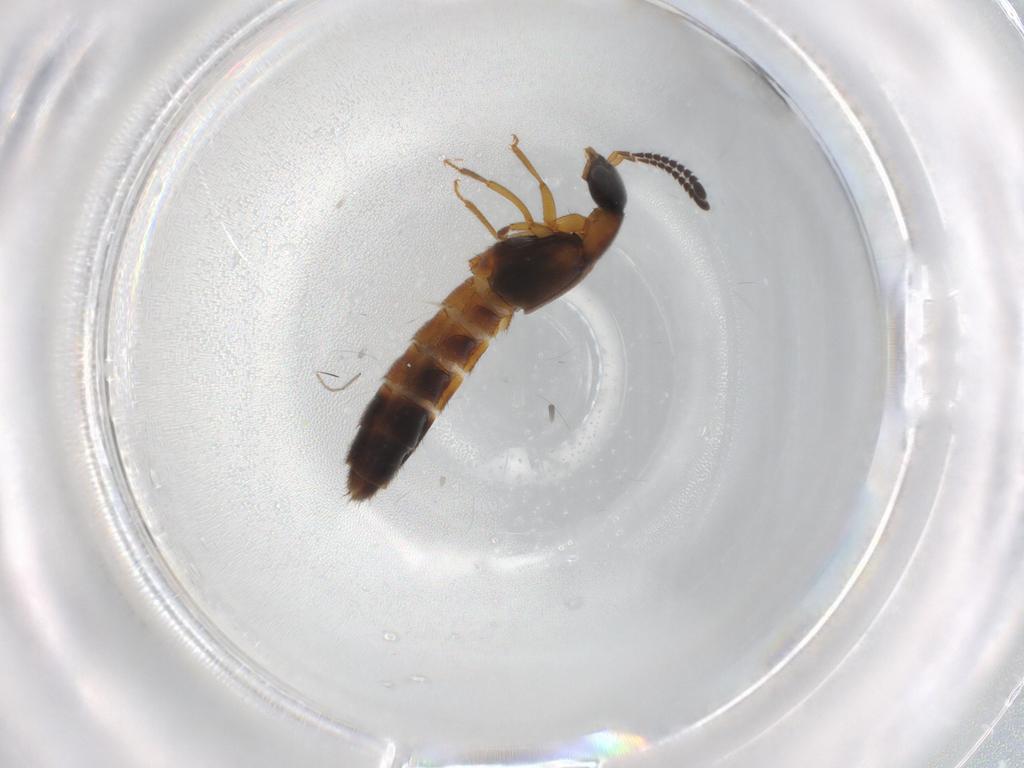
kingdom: Animalia
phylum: Arthropoda
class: Insecta
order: Coleoptera
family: Staphylinidae
